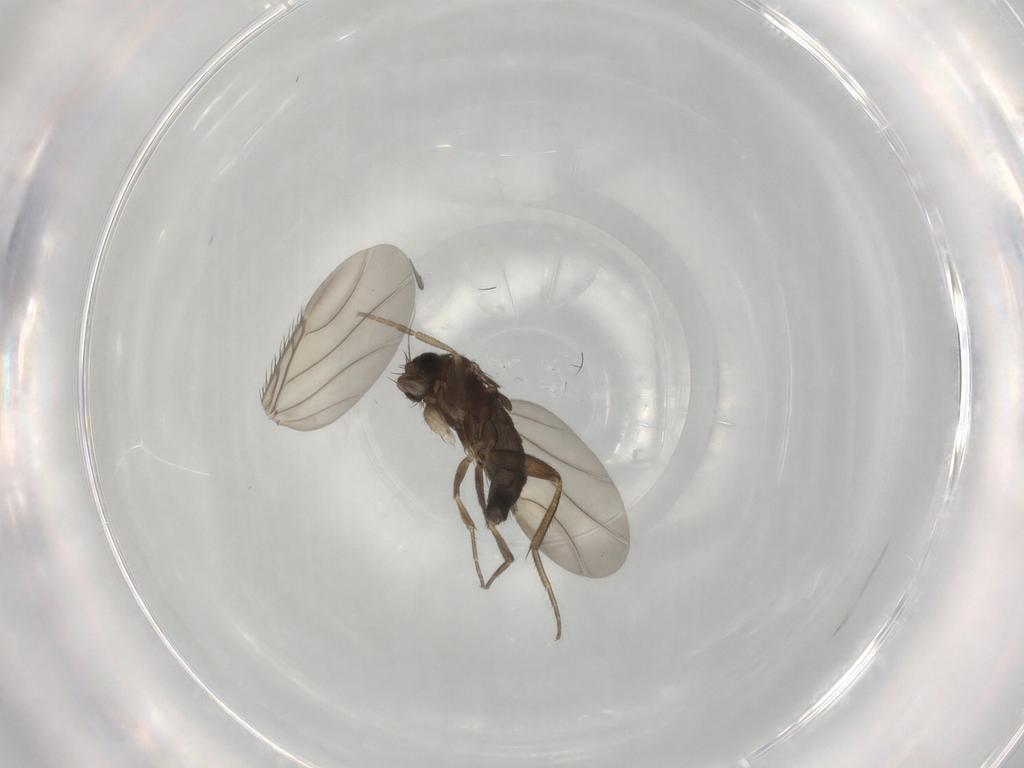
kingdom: Animalia
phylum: Arthropoda
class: Insecta
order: Diptera
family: Phoridae
